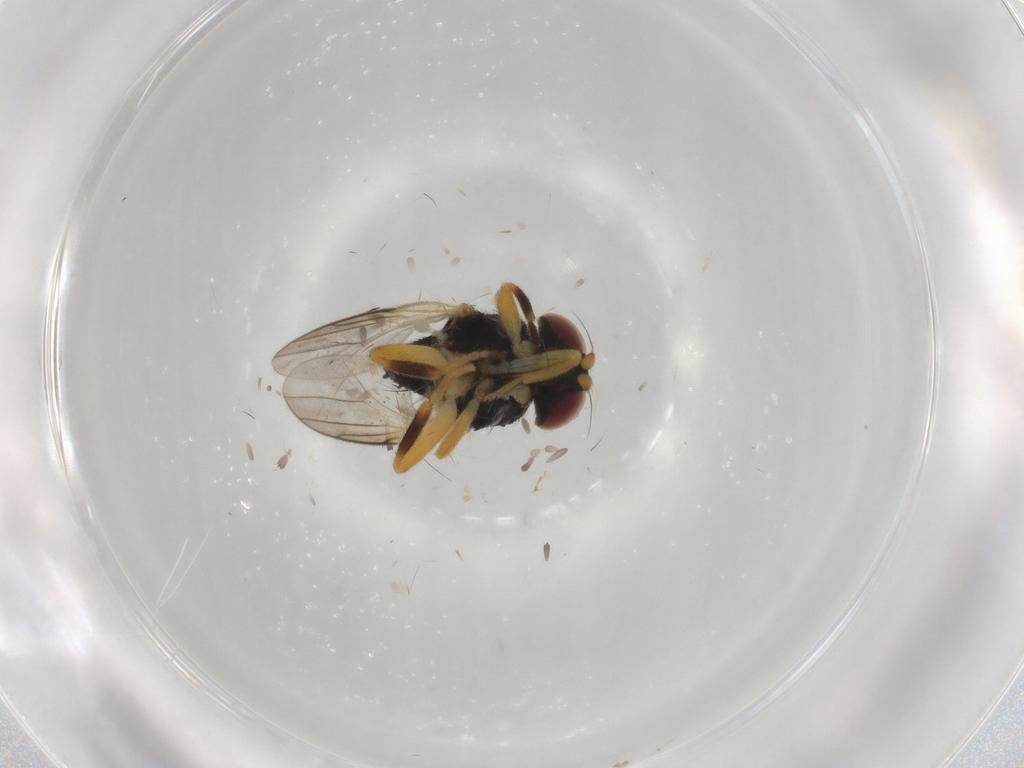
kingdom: Animalia
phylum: Arthropoda
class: Insecta
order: Diptera
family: Chloropidae
